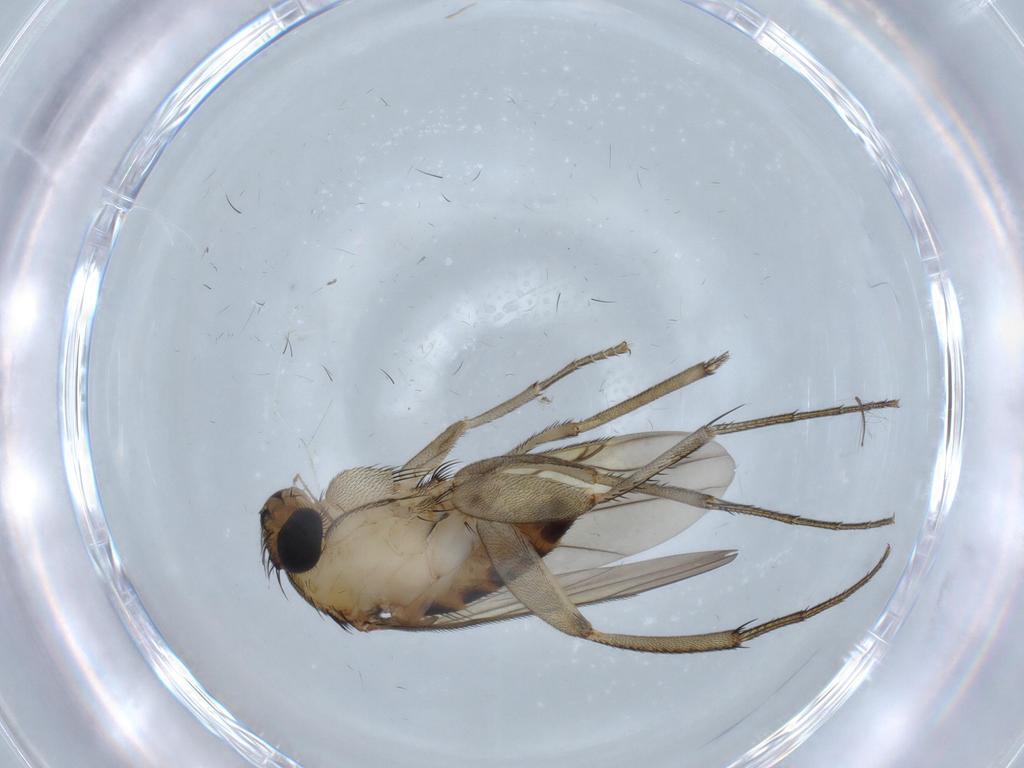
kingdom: Animalia
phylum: Arthropoda
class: Insecta
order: Diptera
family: Phoridae
